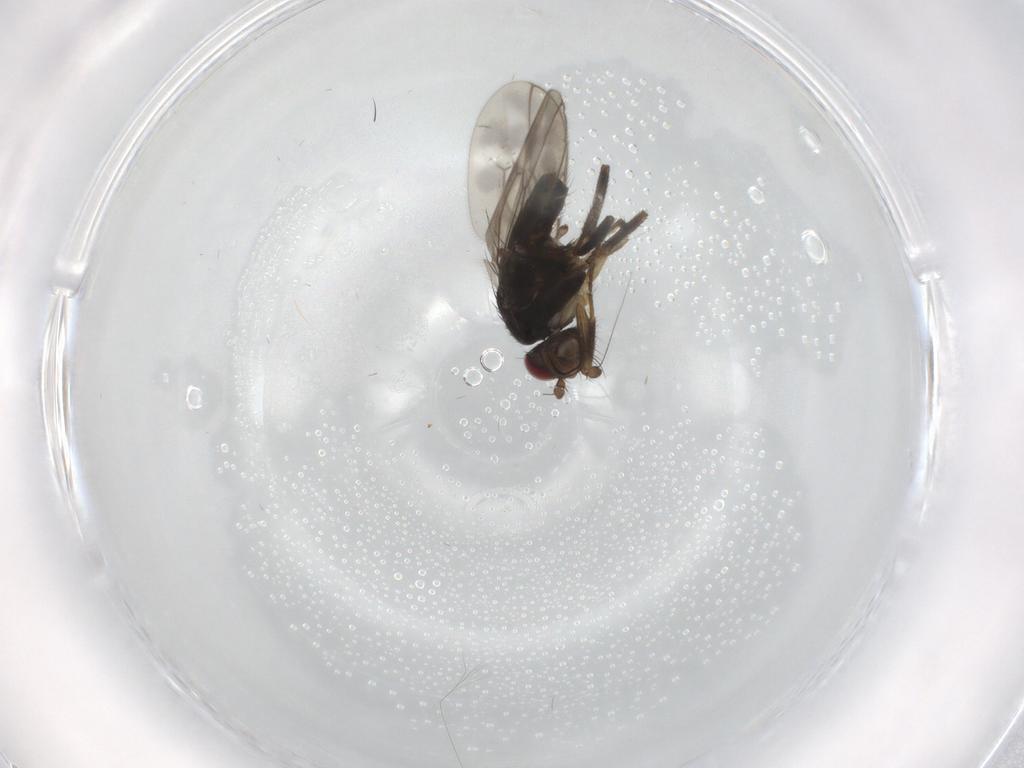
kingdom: Animalia
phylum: Arthropoda
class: Insecta
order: Diptera
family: Sphaeroceridae
